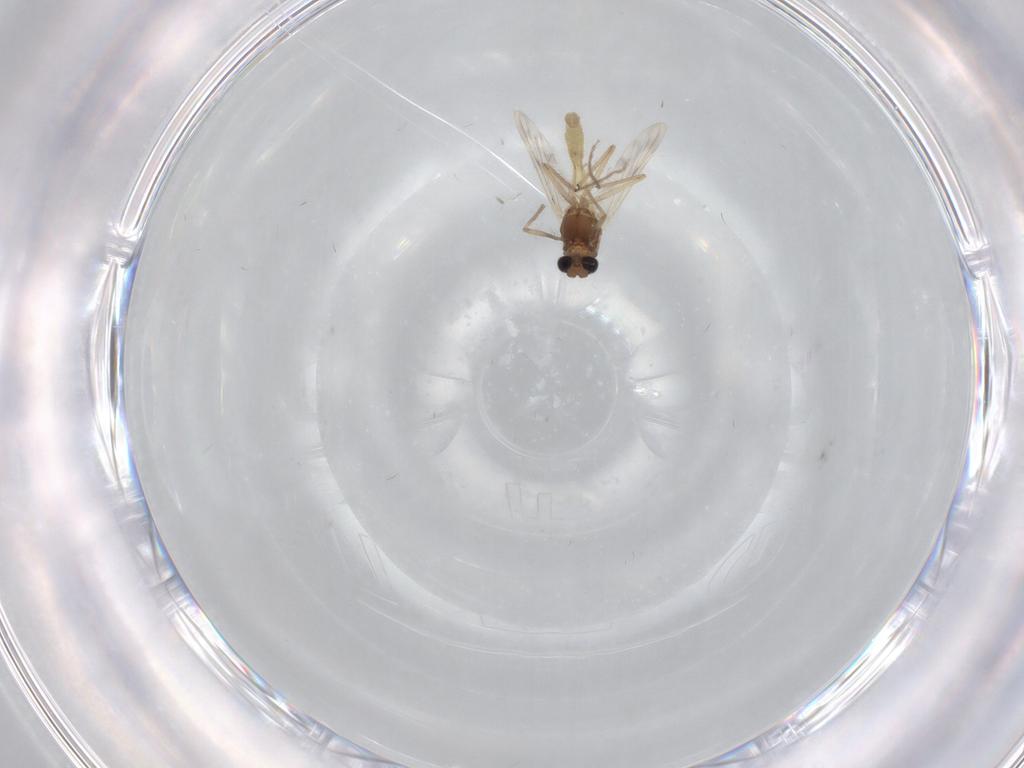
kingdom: Animalia
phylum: Arthropoda
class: Insecta
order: Diptera
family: Chironomidae
